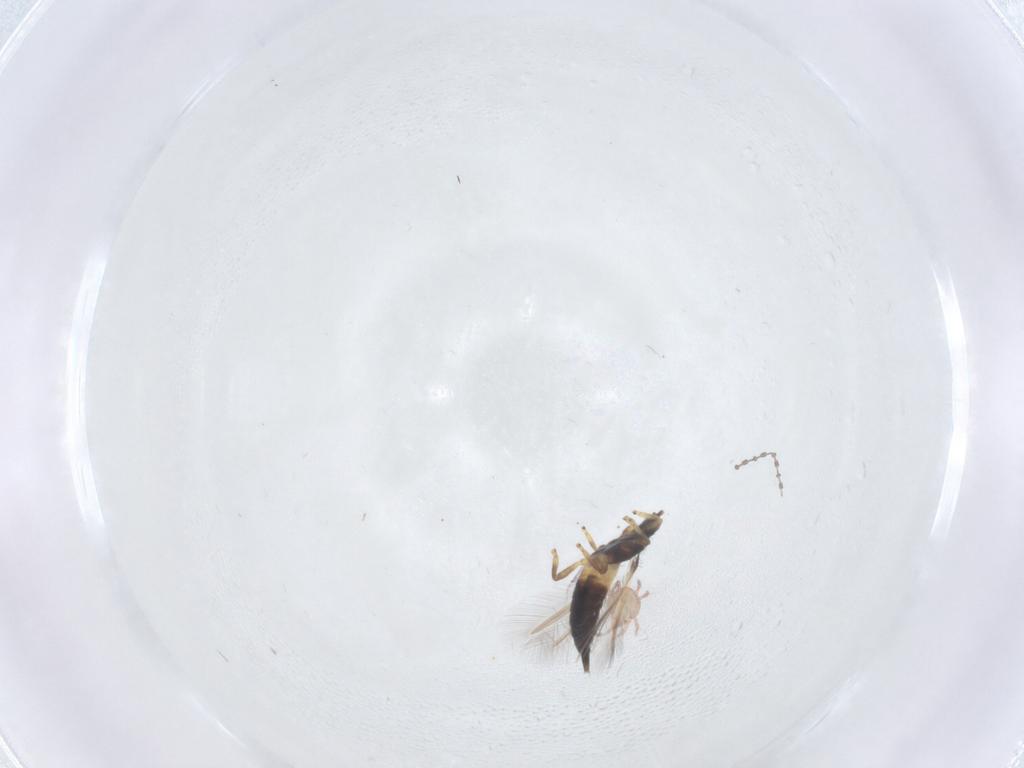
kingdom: Animalia
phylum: Arthropoda
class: Insecta
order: Thysanoptera
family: Phlaeothripidae
